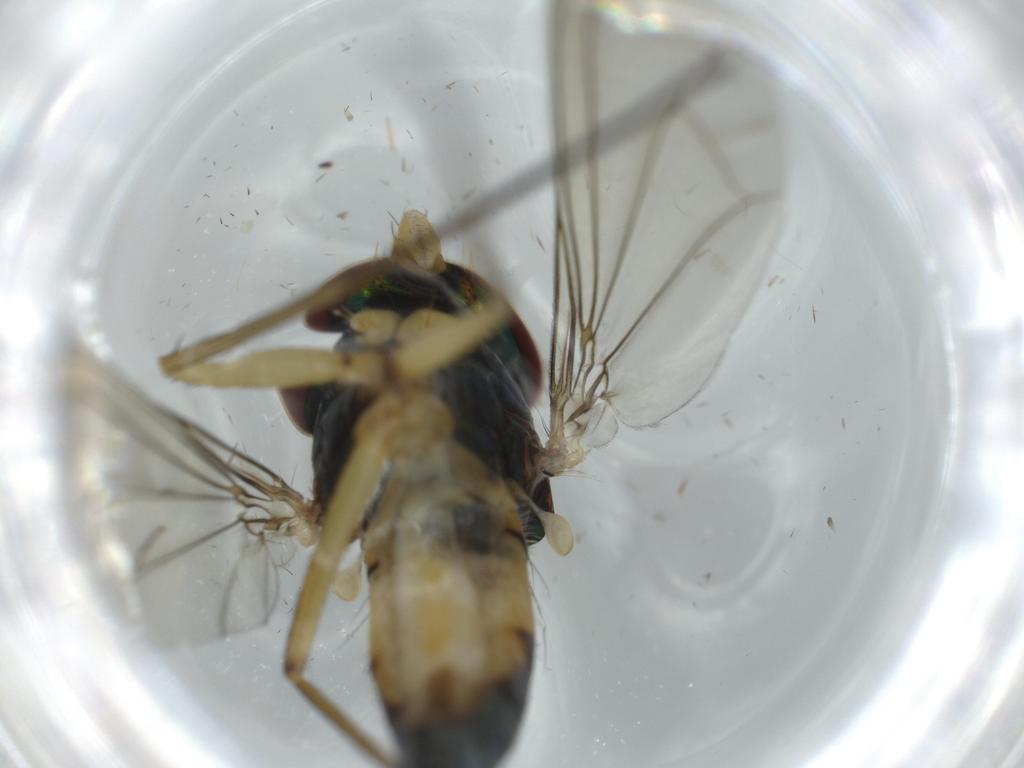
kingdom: Animalia
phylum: Arthropoda
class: Insecta
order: Diptera
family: Dolichopodidae
